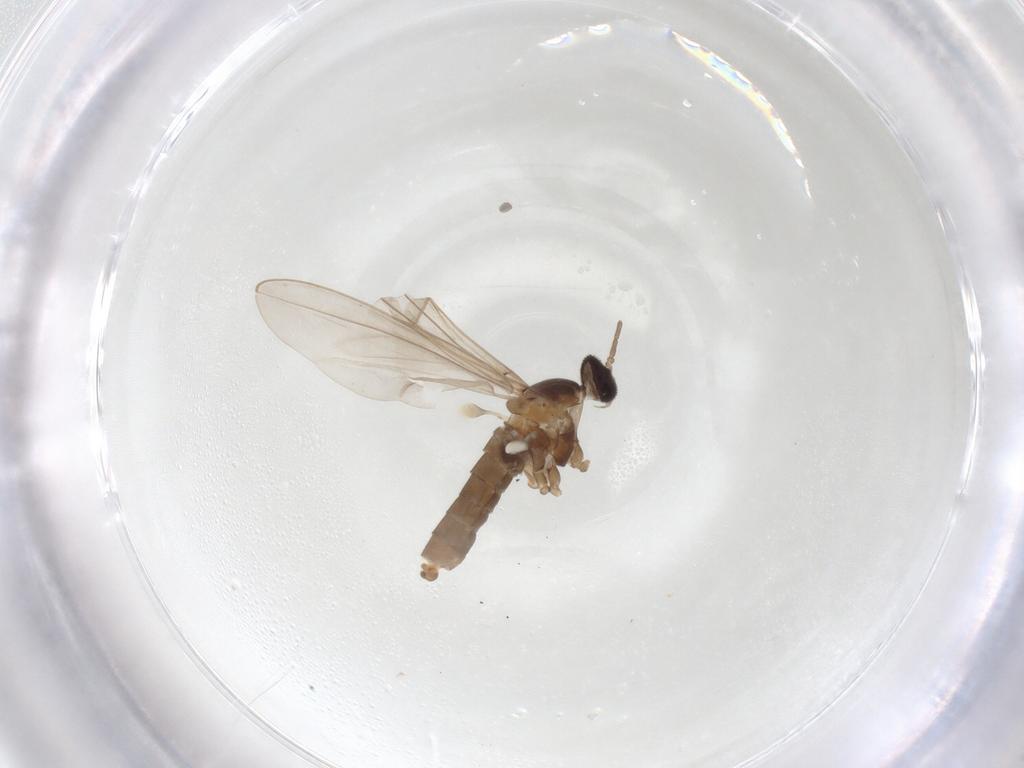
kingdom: Animalia
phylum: Arthropoda
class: Insecta
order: Diptera
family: Cecidomyiidae
